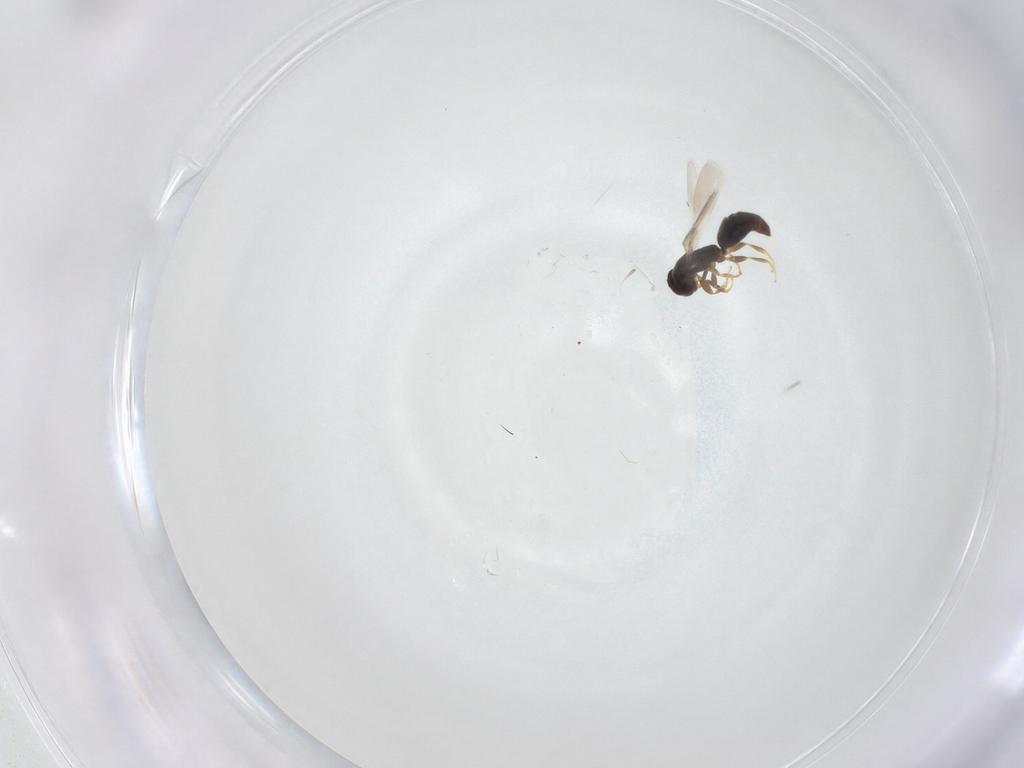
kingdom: Animalia
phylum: Arthropoda
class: Insecta
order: Hymenoptera
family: Bethylidae
